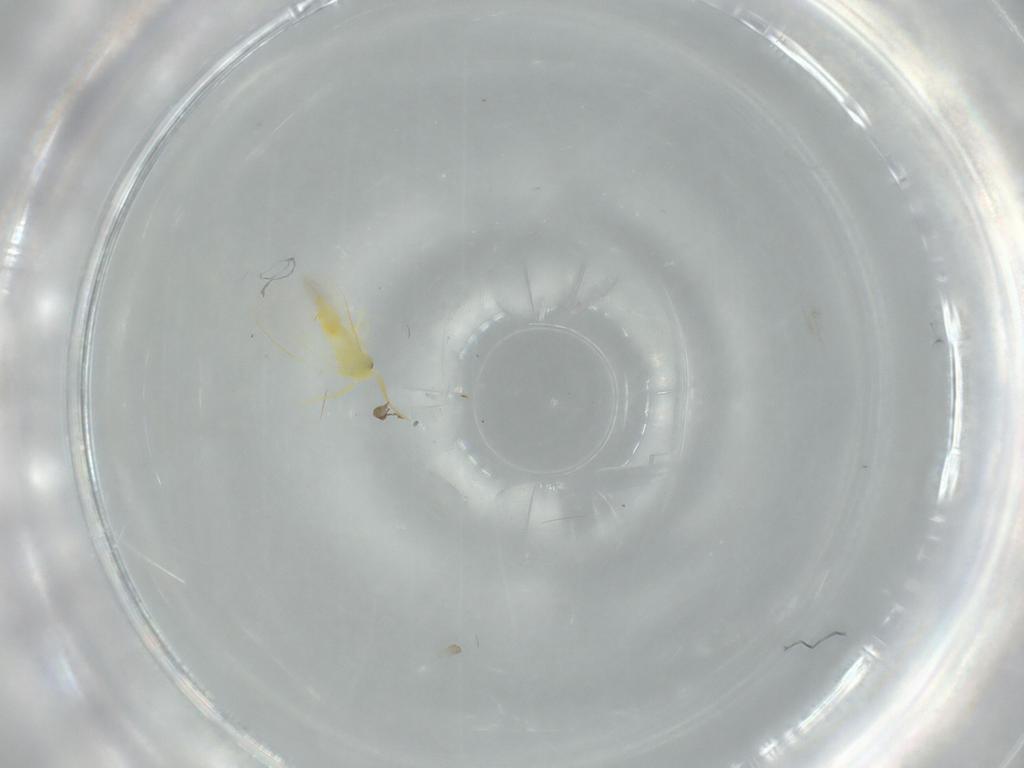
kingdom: Animalia
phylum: Arthropoda
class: Insecta
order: Hemiptera
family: Aleyrodidae
